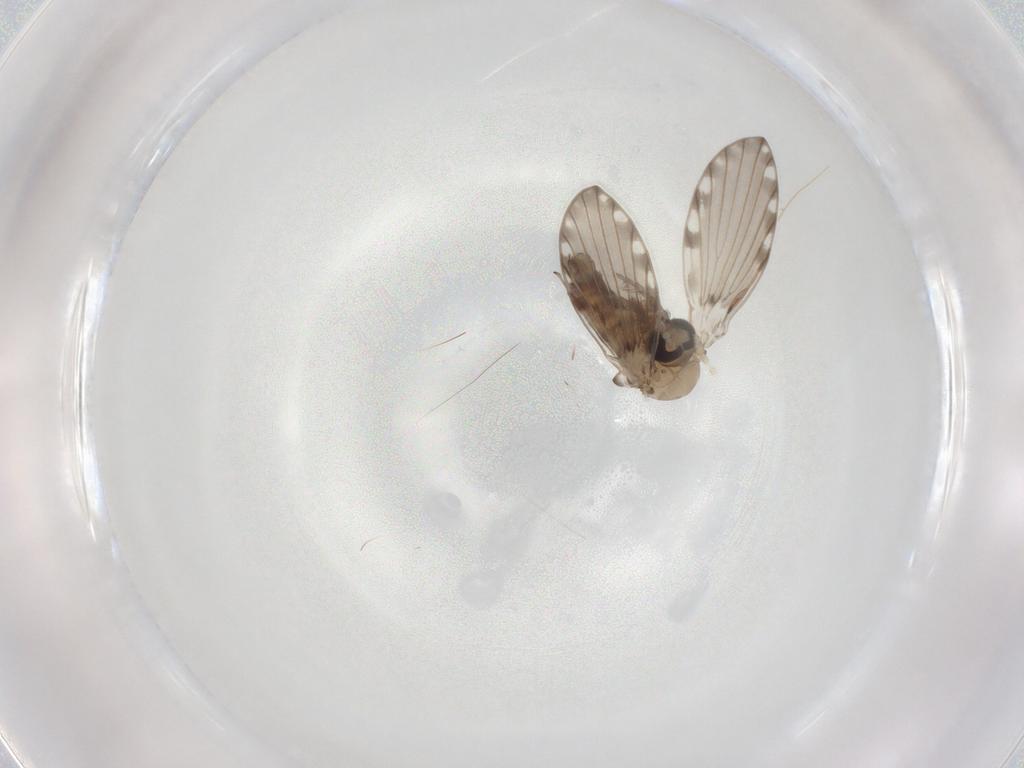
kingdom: Animalia
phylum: Arthropoda
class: Insecta
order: Diptera
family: Psychodidae
